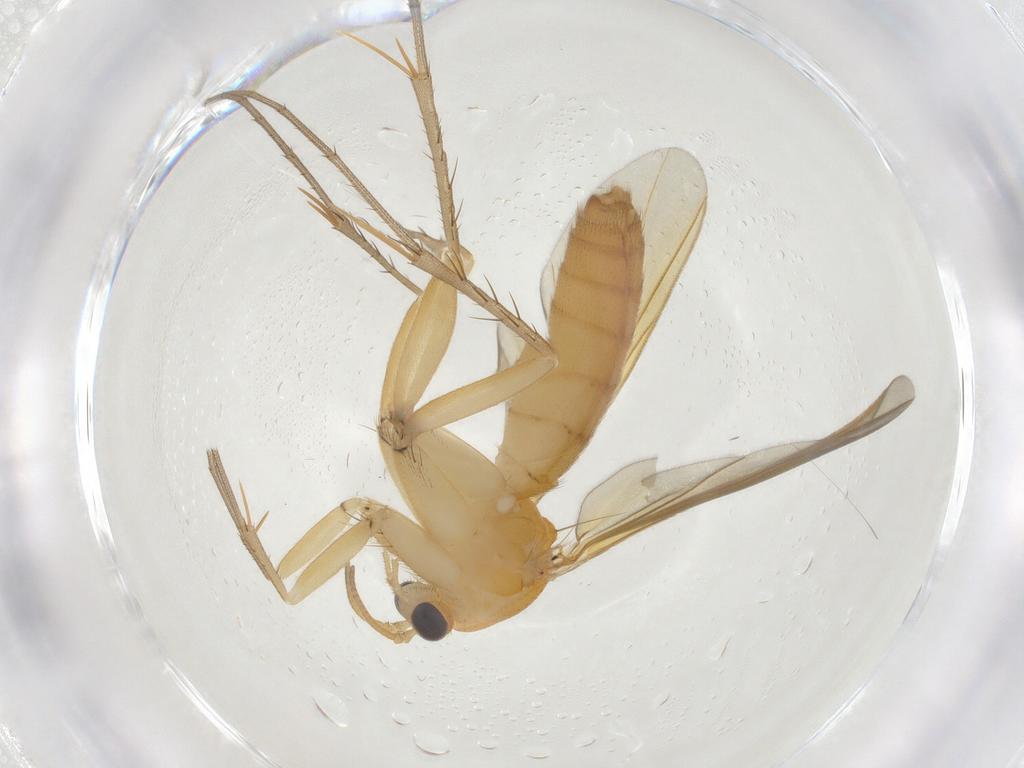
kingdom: Animalia
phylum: Arthropoda
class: Insecta
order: Diptera
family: Mycetophilidae
